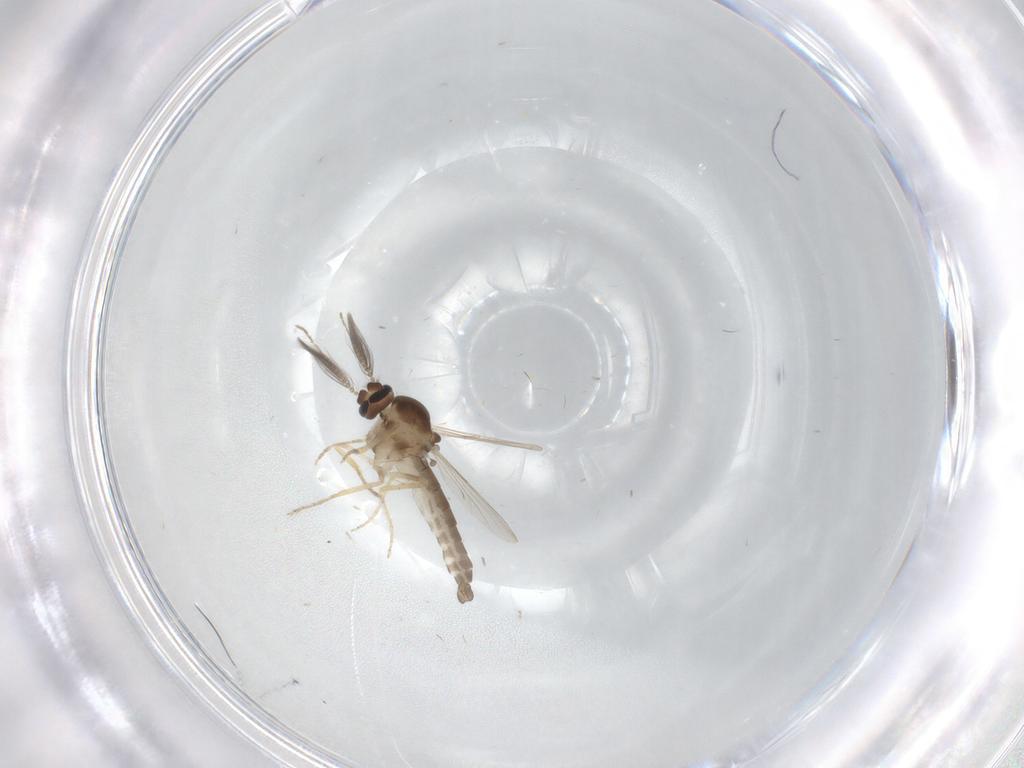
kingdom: Animalia
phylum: Arthropoda
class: Insecta
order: Diptera
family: Ceratopogonidae
